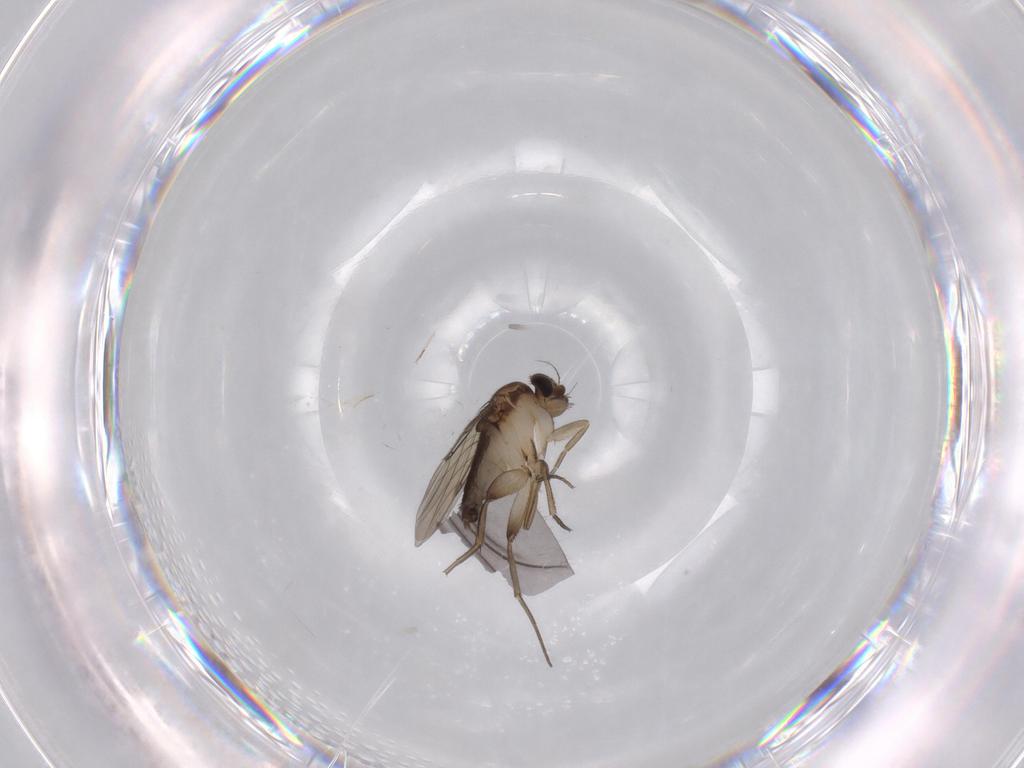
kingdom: Animalia
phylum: Arthropoda
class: Insecta
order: Diptera
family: Phoridae
